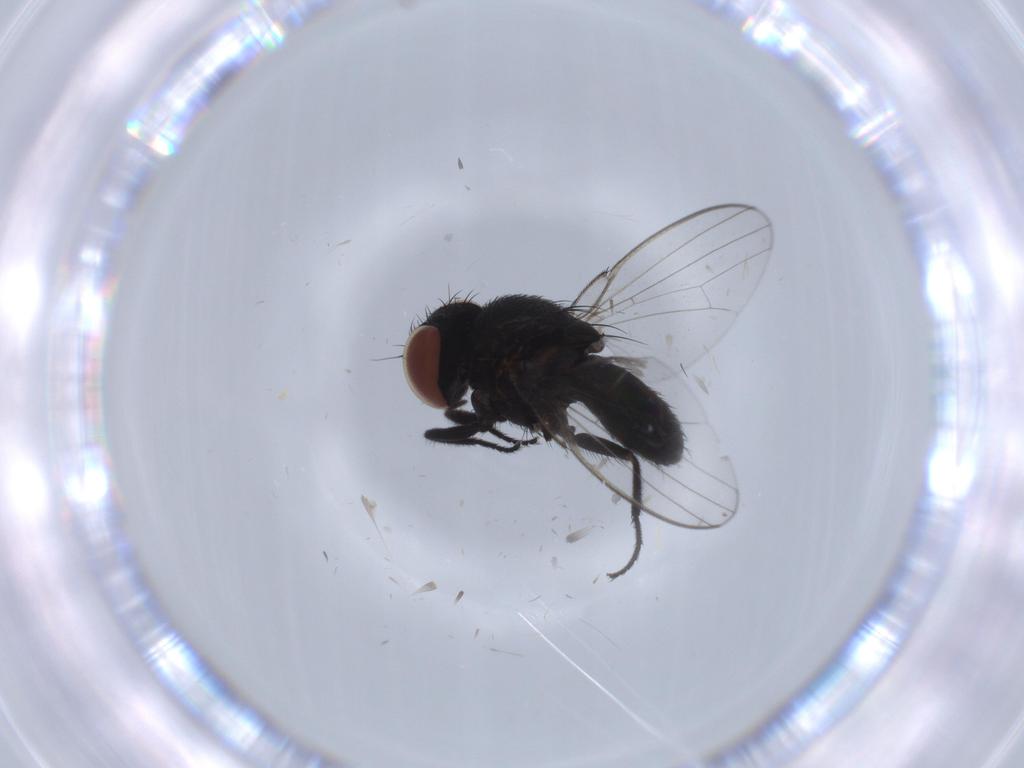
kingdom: Animalia
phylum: Arthropoda
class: Insecta
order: Diptera
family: Milichiidae
